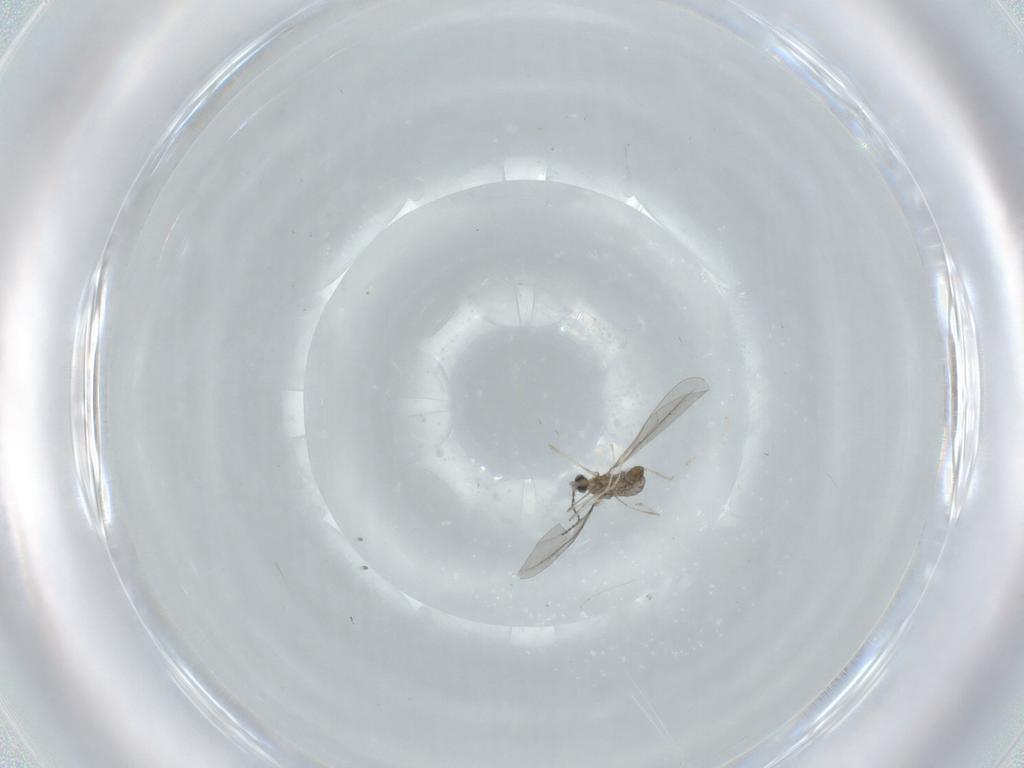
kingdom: Animalia
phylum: Arthropoda
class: Insecta
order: Diptera
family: Cecidomyiidae
